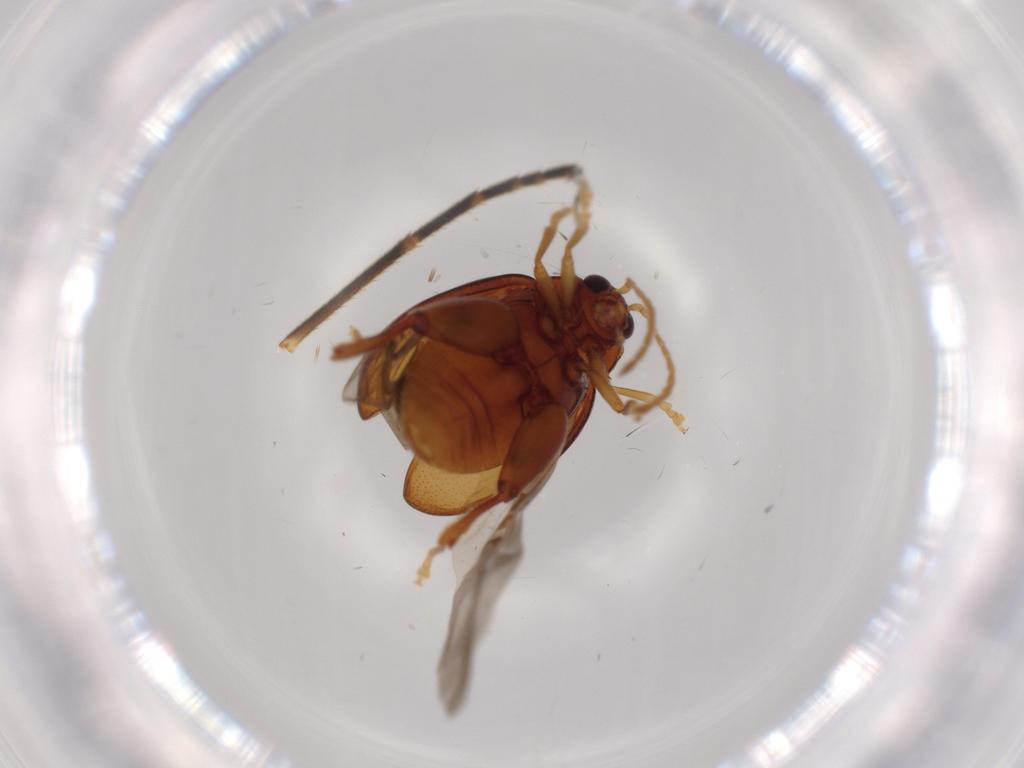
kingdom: Animalia
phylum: Arthropoda
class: Insecta
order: Coleoptera
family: Chrysomelidae
